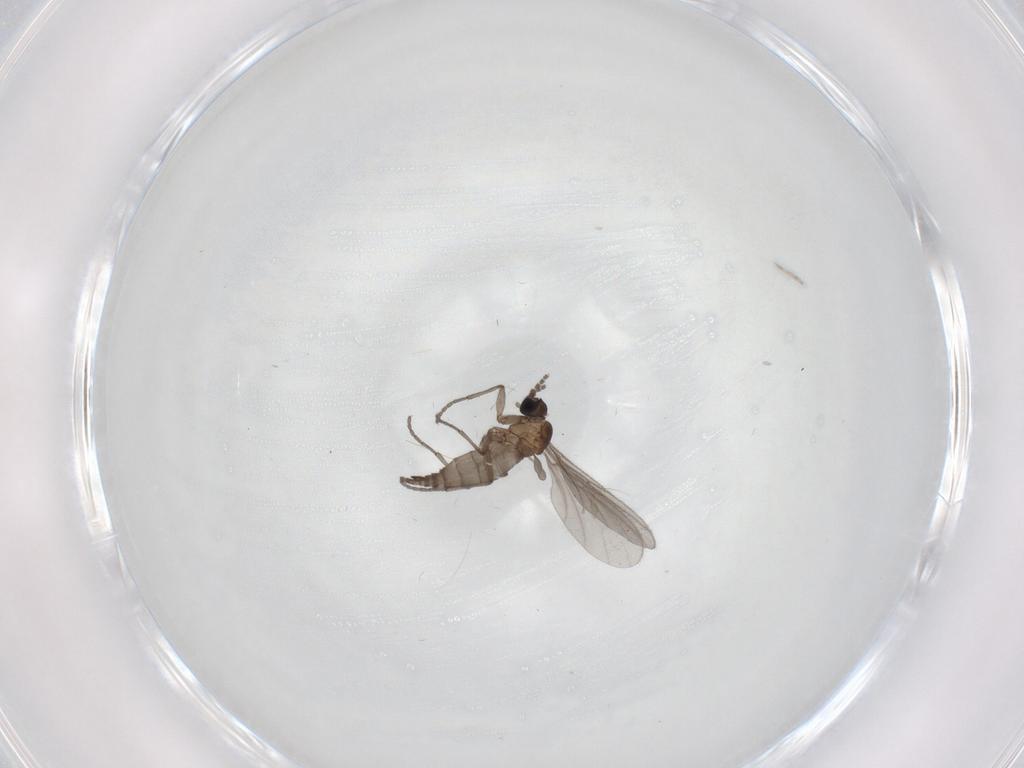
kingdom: Animalia
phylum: Arthropoda
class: Insecta
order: Diptera
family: Sciaridae
